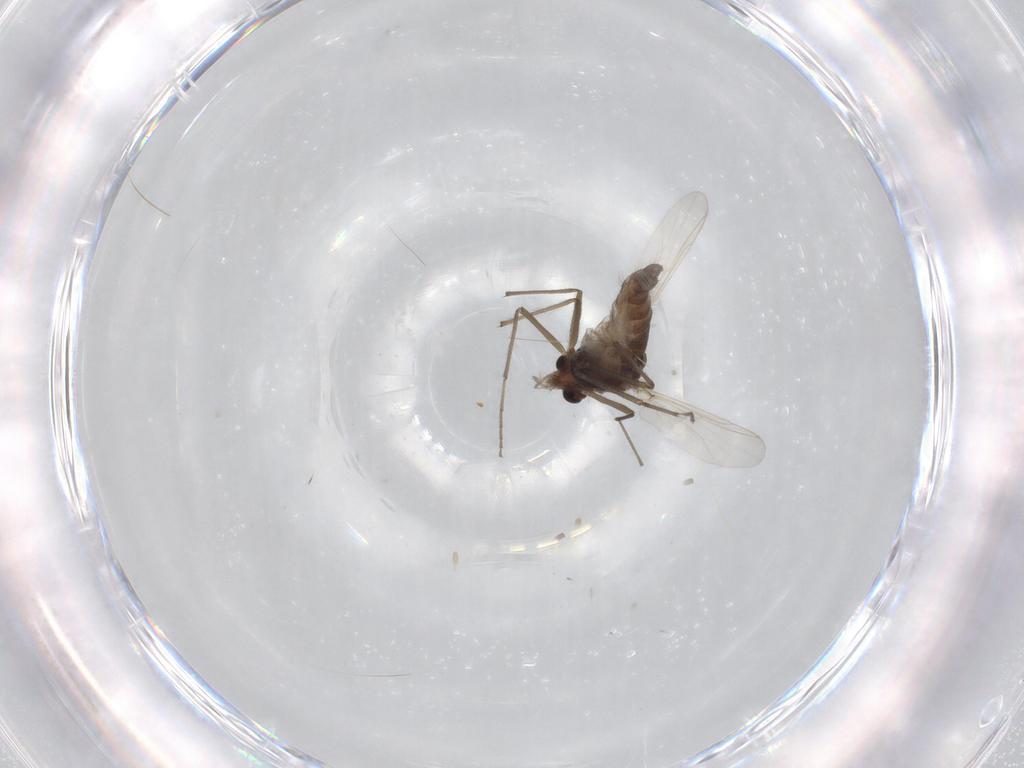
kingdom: Animalia
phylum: Arthropoda
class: Insecta
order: Diptera
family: Chironomidae
